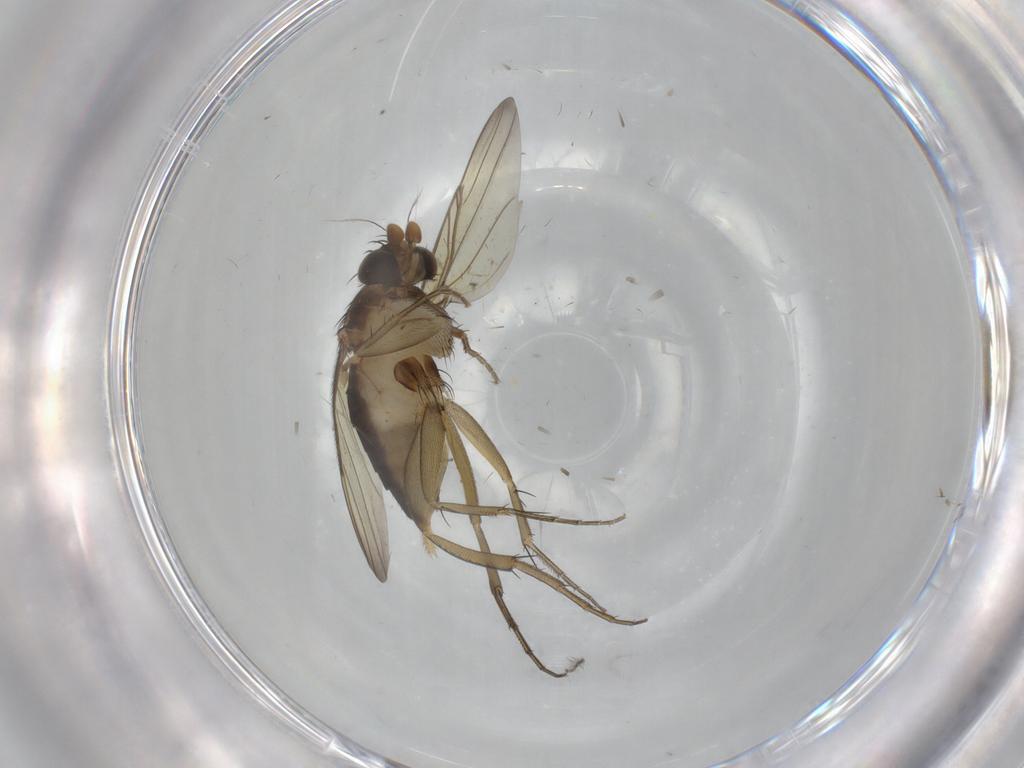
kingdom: Animalia
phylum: Arthropoda
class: Insecta
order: Diptera
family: Phoridae
